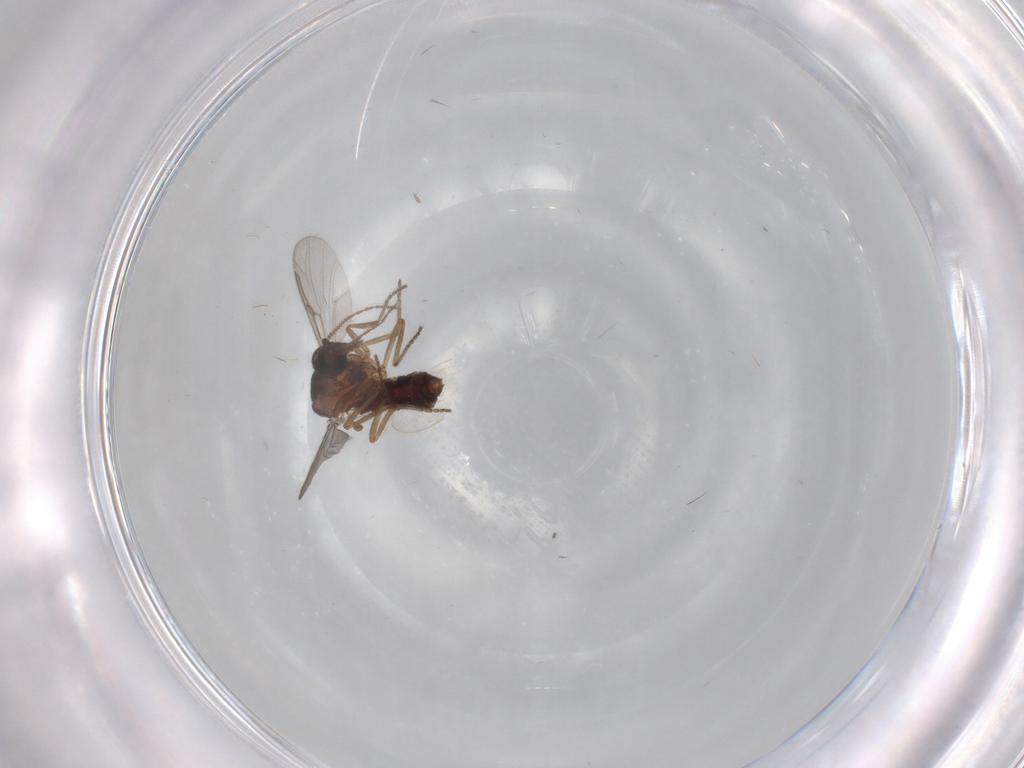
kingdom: Animalia
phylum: Arthropoda
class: Insecta
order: Diptera
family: Ceratopogonidae
